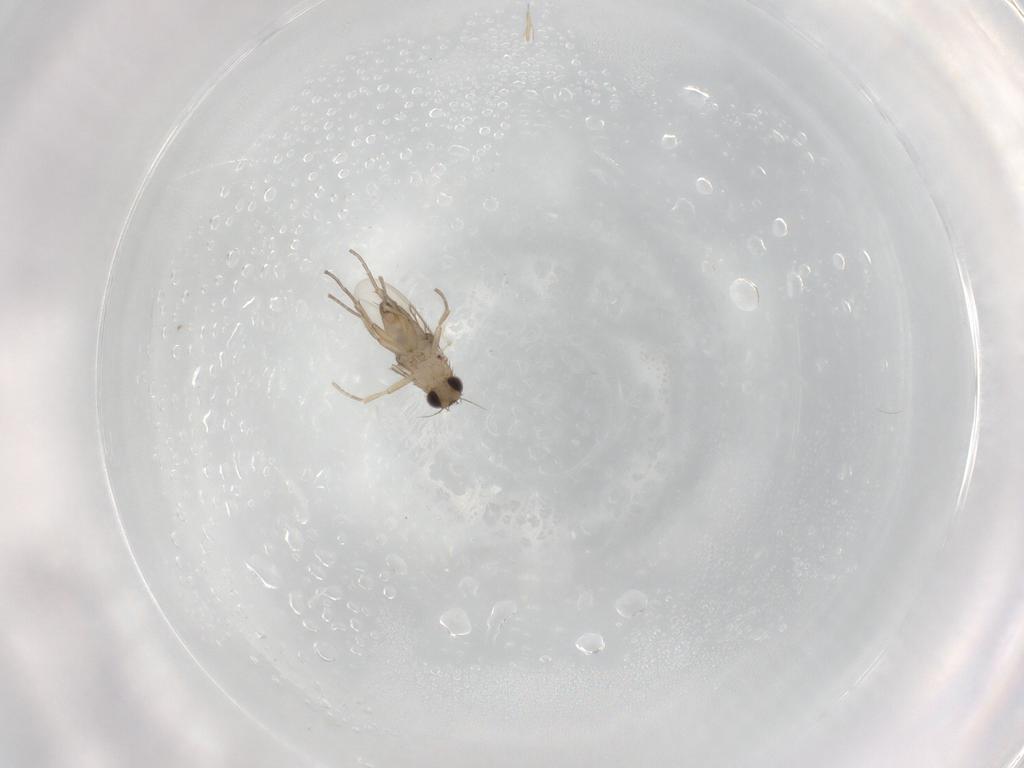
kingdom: Animalia
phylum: Arthropoda
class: Insecta
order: Diptera
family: Phoridae
